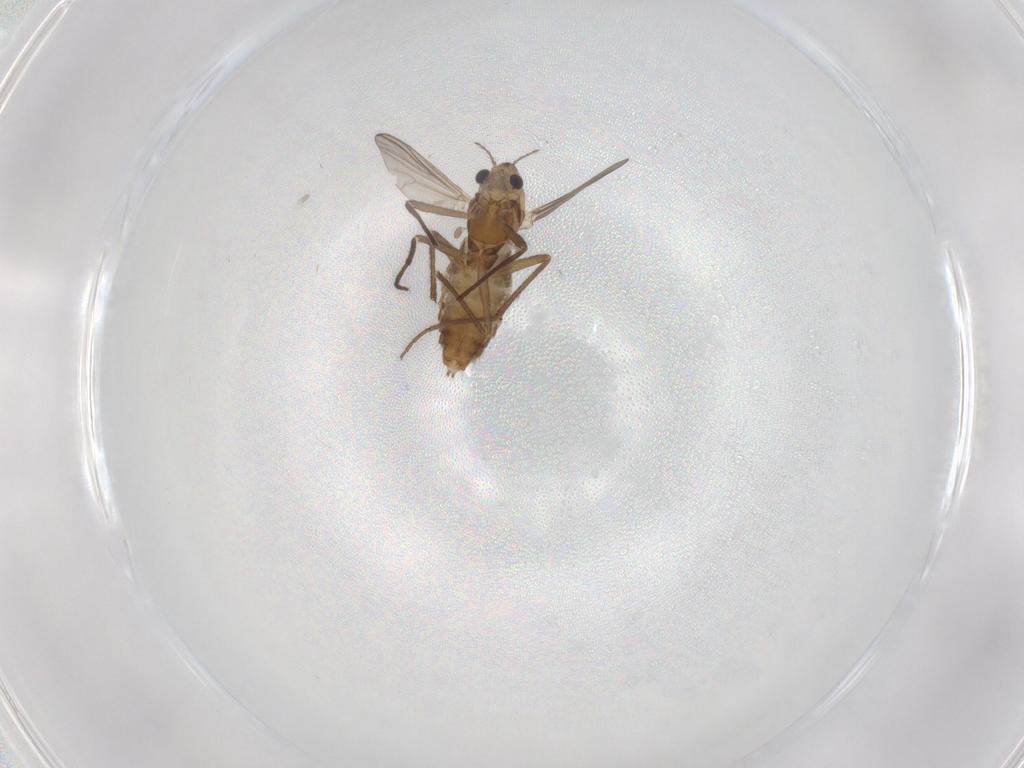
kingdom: Animalia
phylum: Arthropoda
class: Insecta
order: Diptera
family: Chironomidae
